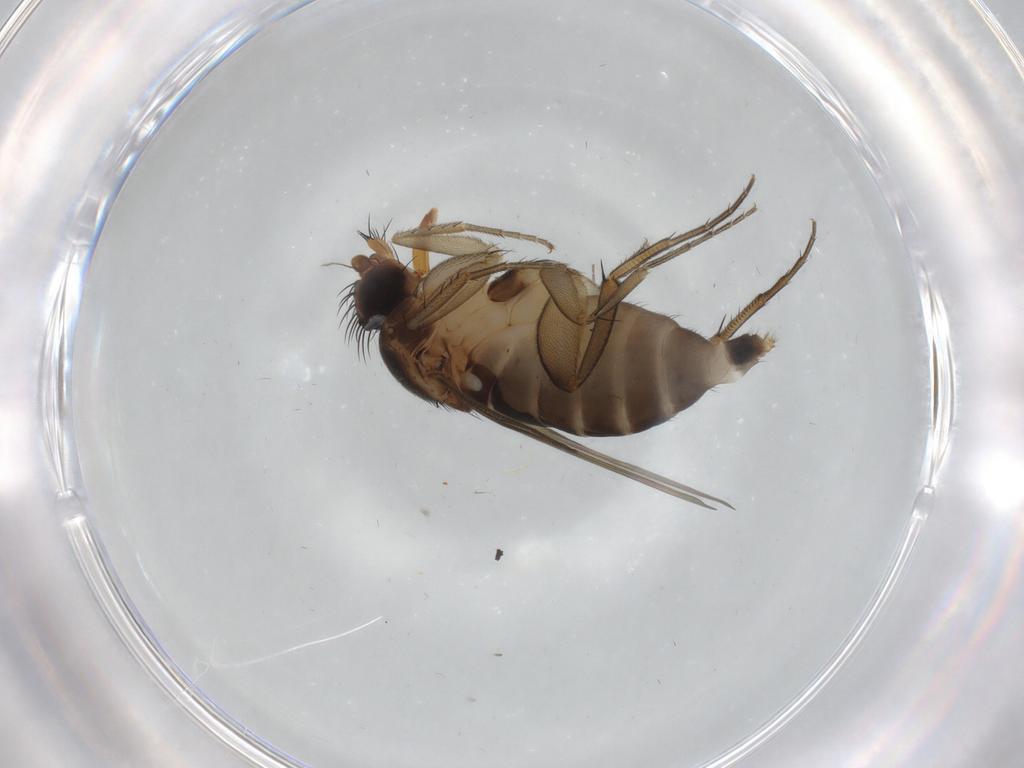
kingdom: Animalia
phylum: Arthropoda
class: Insecta
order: Diptera
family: Phoridae
